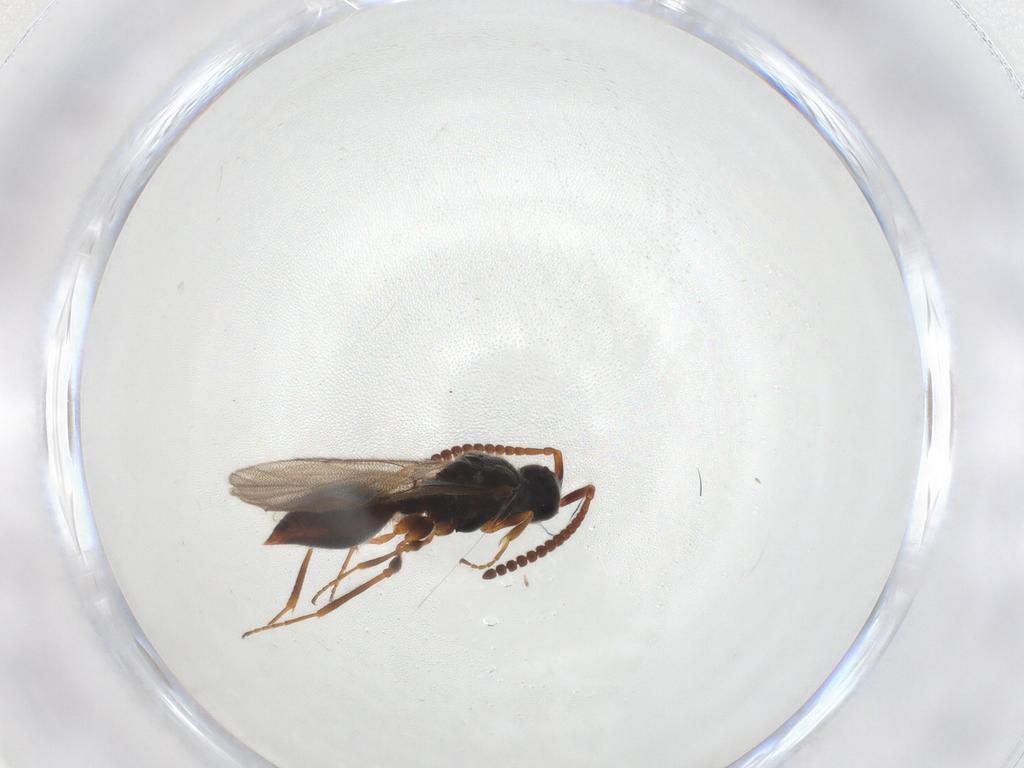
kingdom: Animalia
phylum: Arthropoda
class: Insecta
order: Hymenoptera
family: Diapriidae
